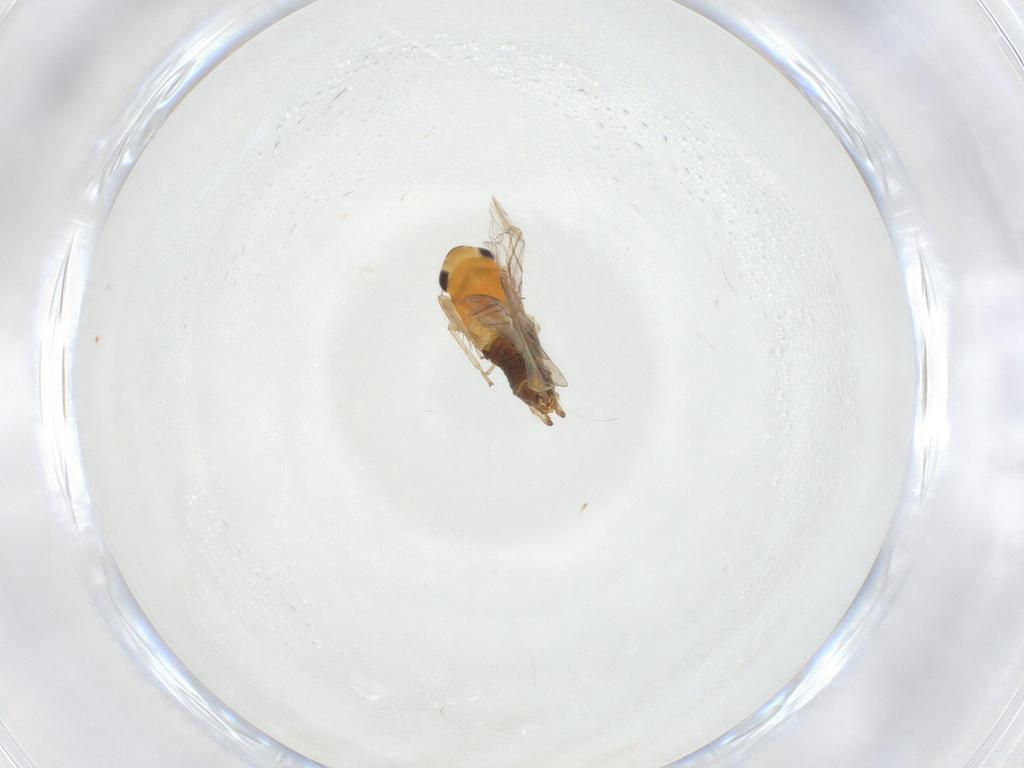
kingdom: Animalia
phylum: Arthropoda
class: Insecta
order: Hemiptera
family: Cicadellidae
